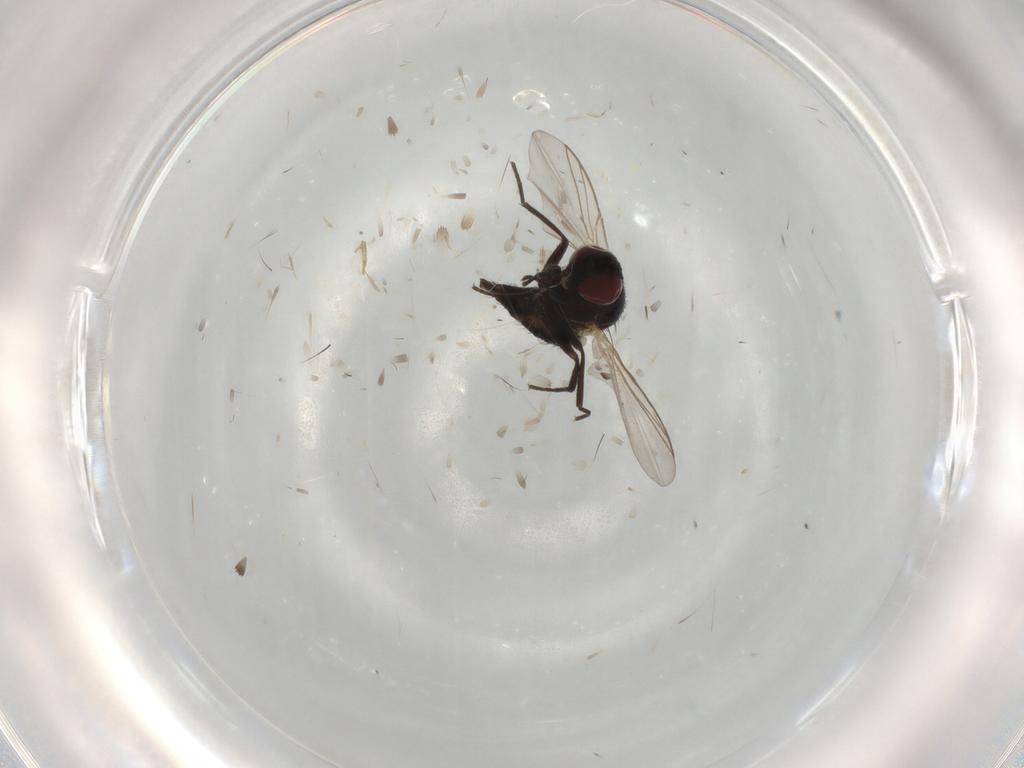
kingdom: Animalia
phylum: Arthropoda
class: Insecta
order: Diptera
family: Agromyzidae
